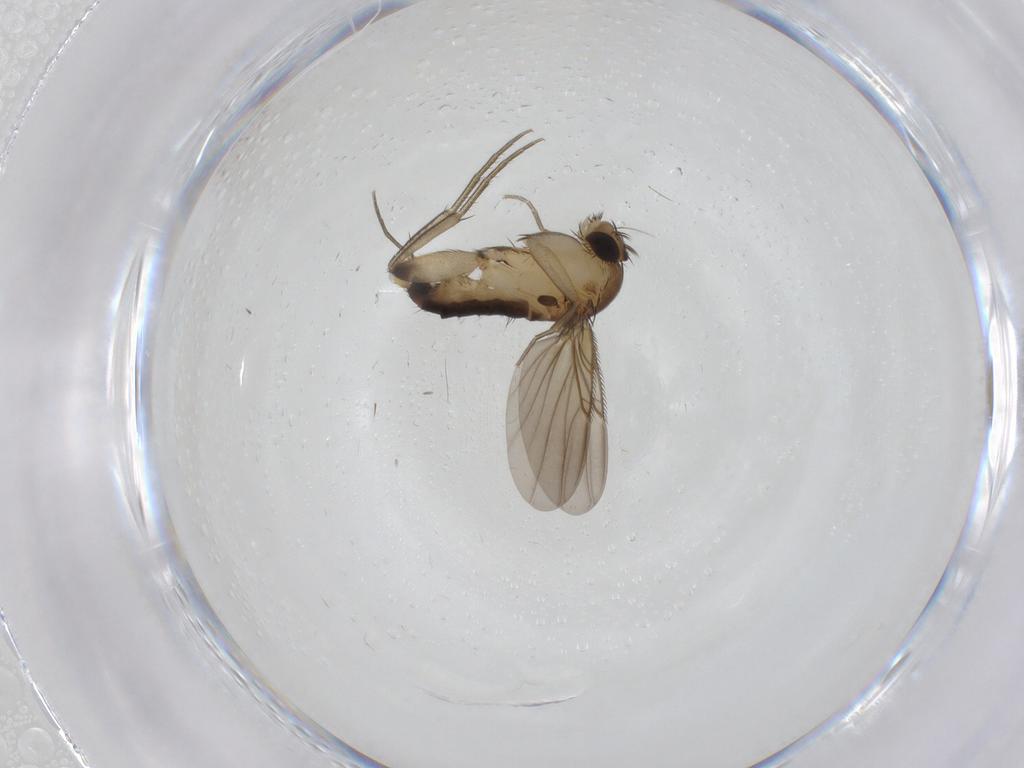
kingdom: Animalia
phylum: Arthropoda
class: Insecta
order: Diptera
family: Phoridae
